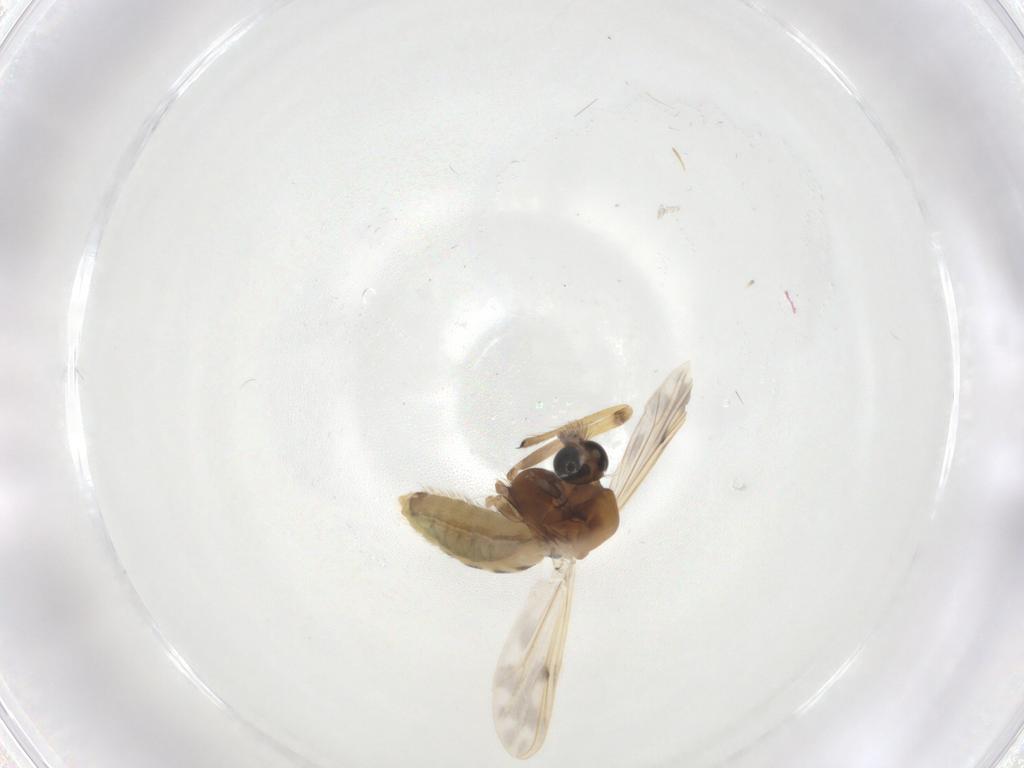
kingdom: Animalia
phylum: Arthropoda
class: Insecta
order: Diptera
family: Chironomidae
